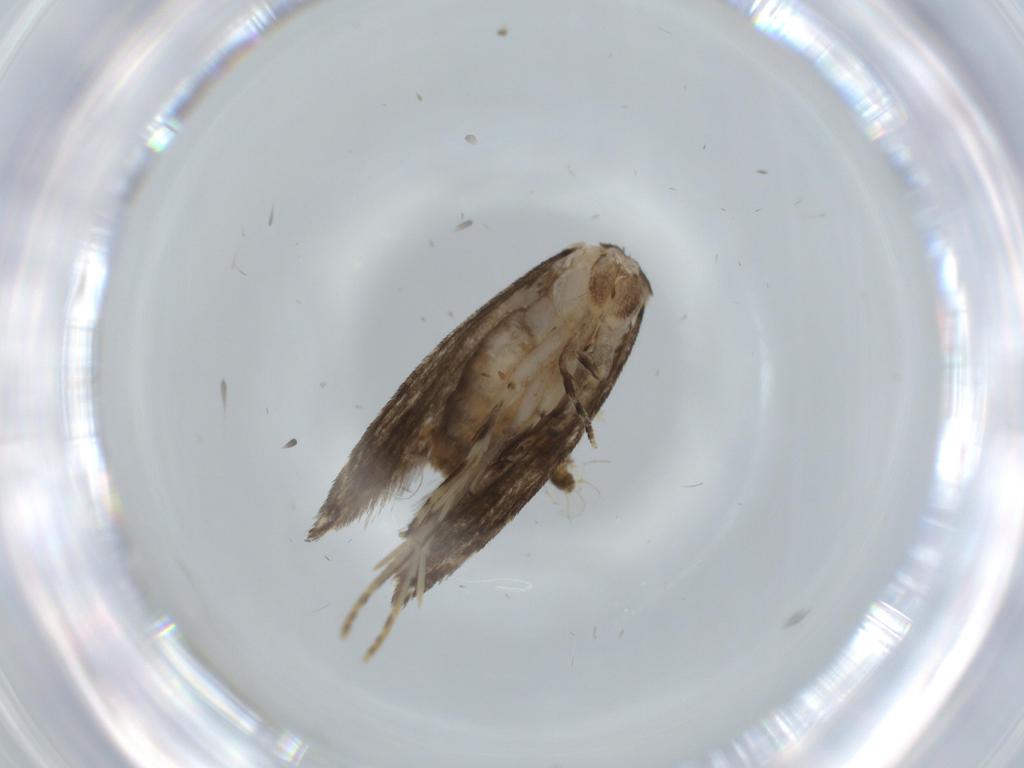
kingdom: Animalia
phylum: Arthropoda
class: Insecta
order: Lepidoptera
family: Tineidae
